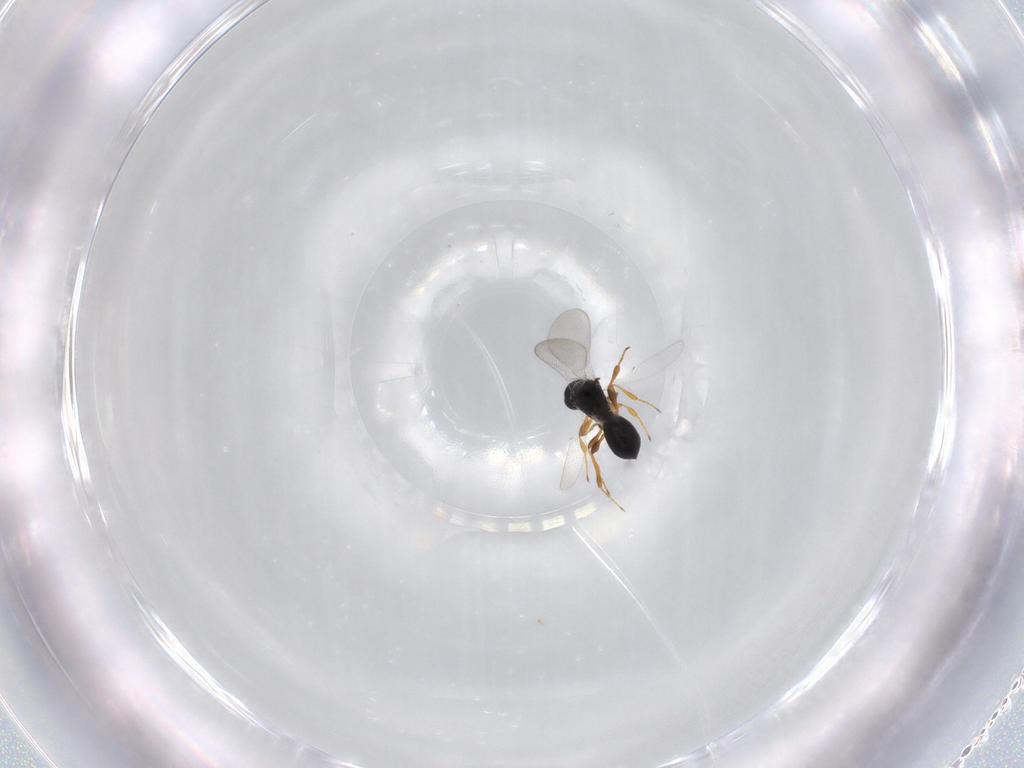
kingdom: Animalia
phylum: Arthropoda
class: Insecta
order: Hymenoptera
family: Platygastridae
